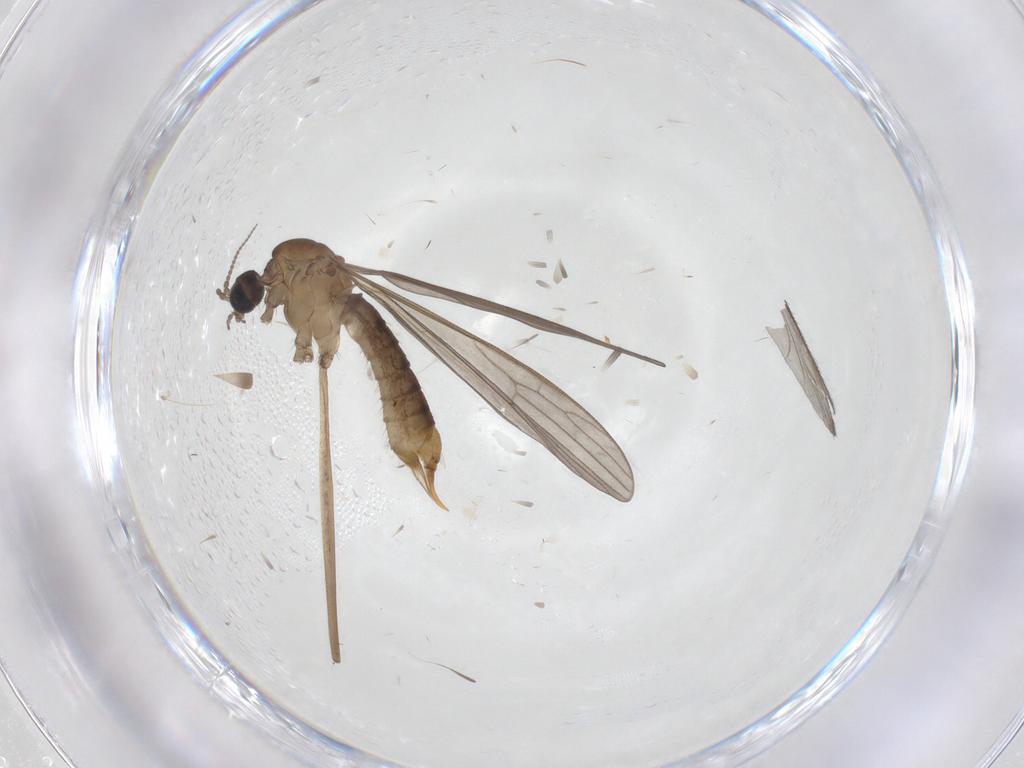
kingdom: Animalia
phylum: Arthropoda
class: Insecta
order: Diptera
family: Limoniidae
